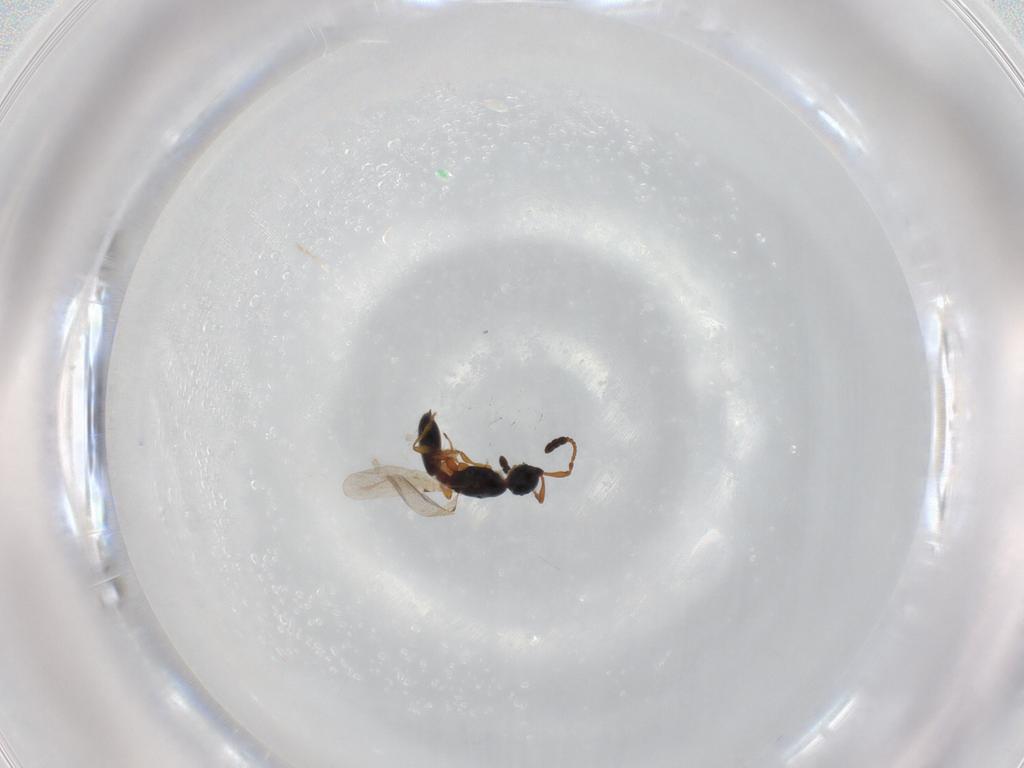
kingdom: Animalia
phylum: Arthropoda
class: Insecta
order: Hymenoptera
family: Diapriidae
